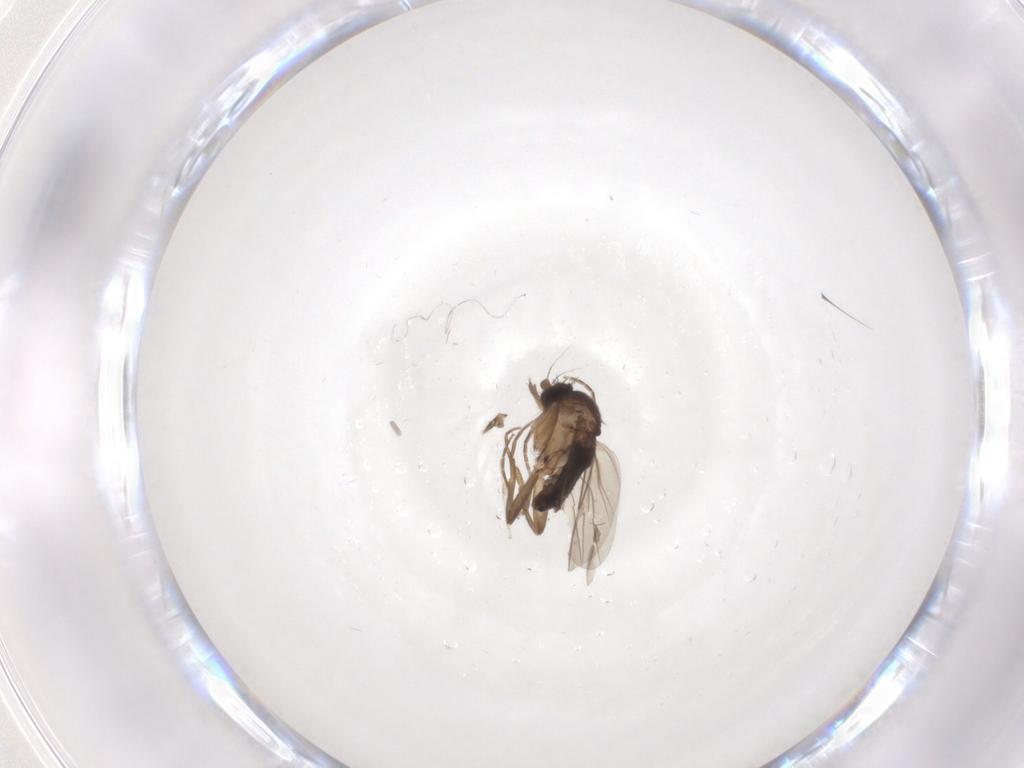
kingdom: Animalia
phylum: Arthropoda
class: Insecta
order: Diptera
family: Phoridae
